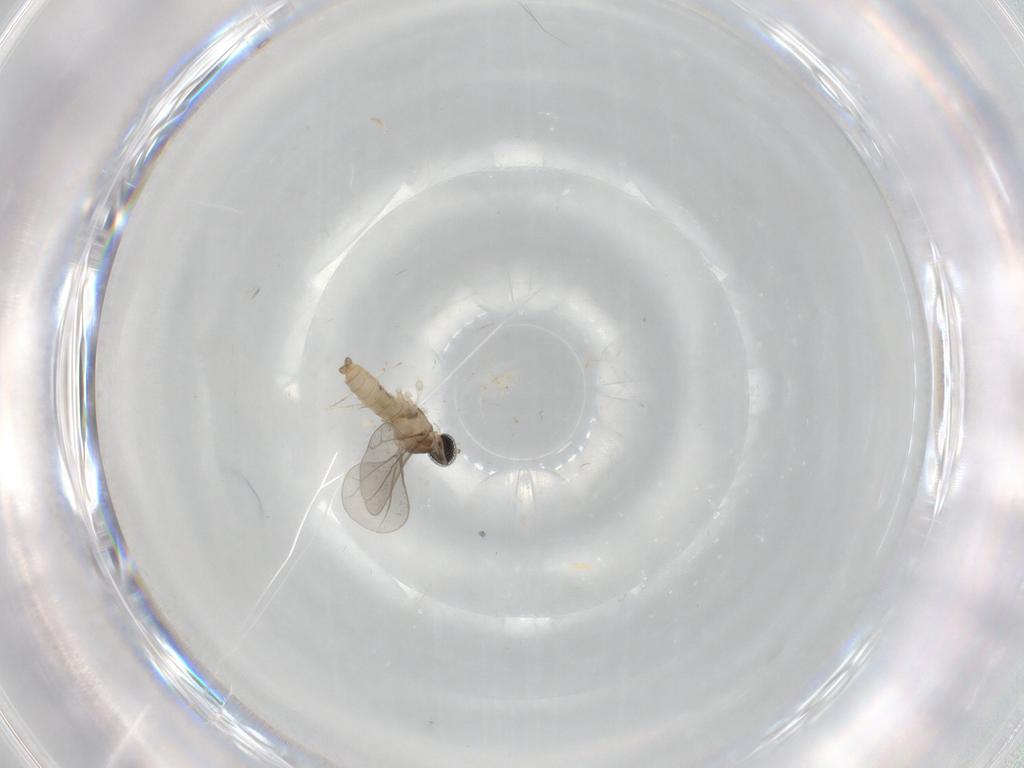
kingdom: Animalia
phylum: Arthropoda
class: Insecta
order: Diptera
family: Cecidomyiidae
